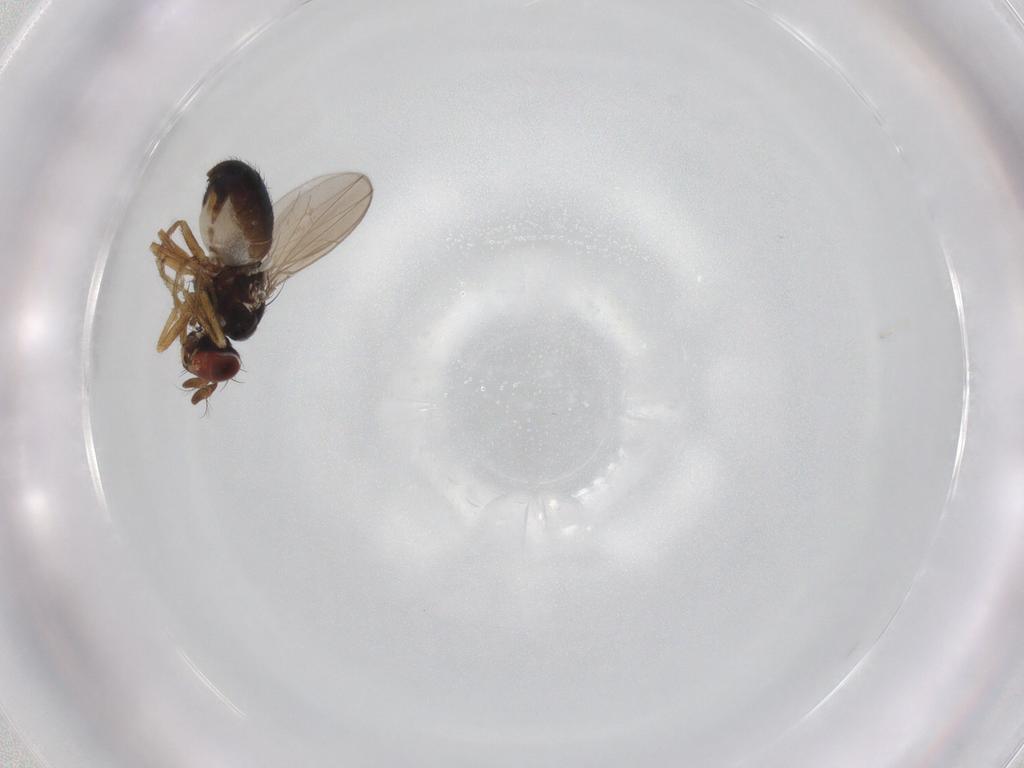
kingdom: Animalia
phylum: Arthropoda
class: Insecta
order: Diptera
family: Ephydridae
